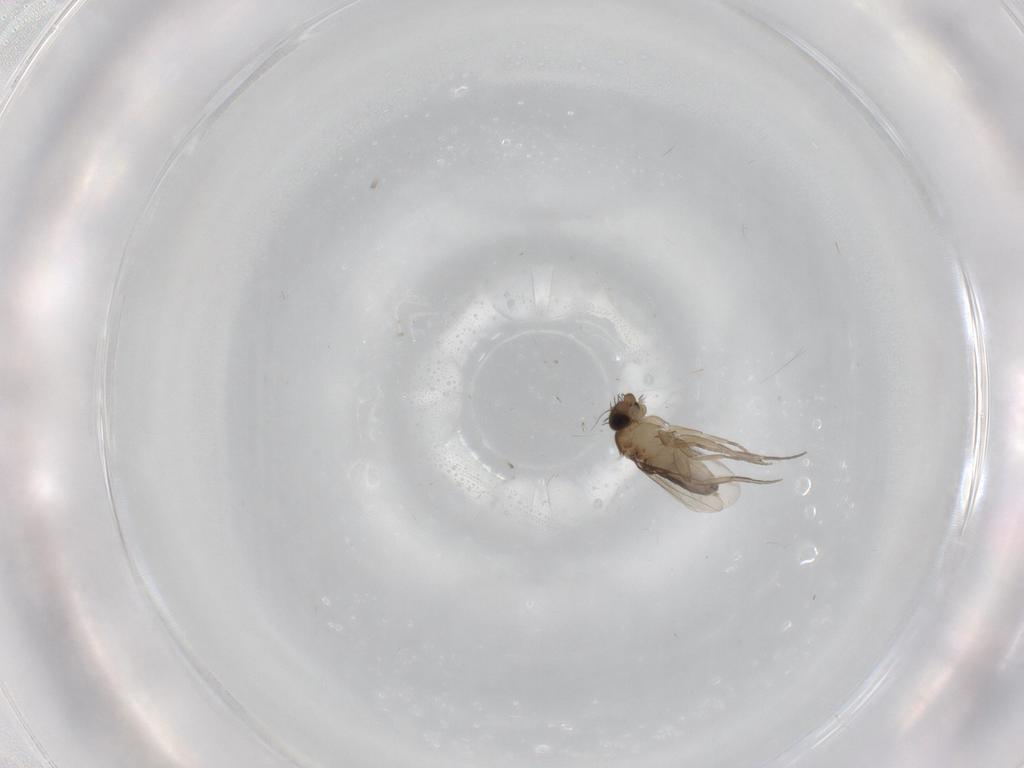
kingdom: Animalia
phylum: Arthropoda
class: Insecta
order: Diptera
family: Phoridae
